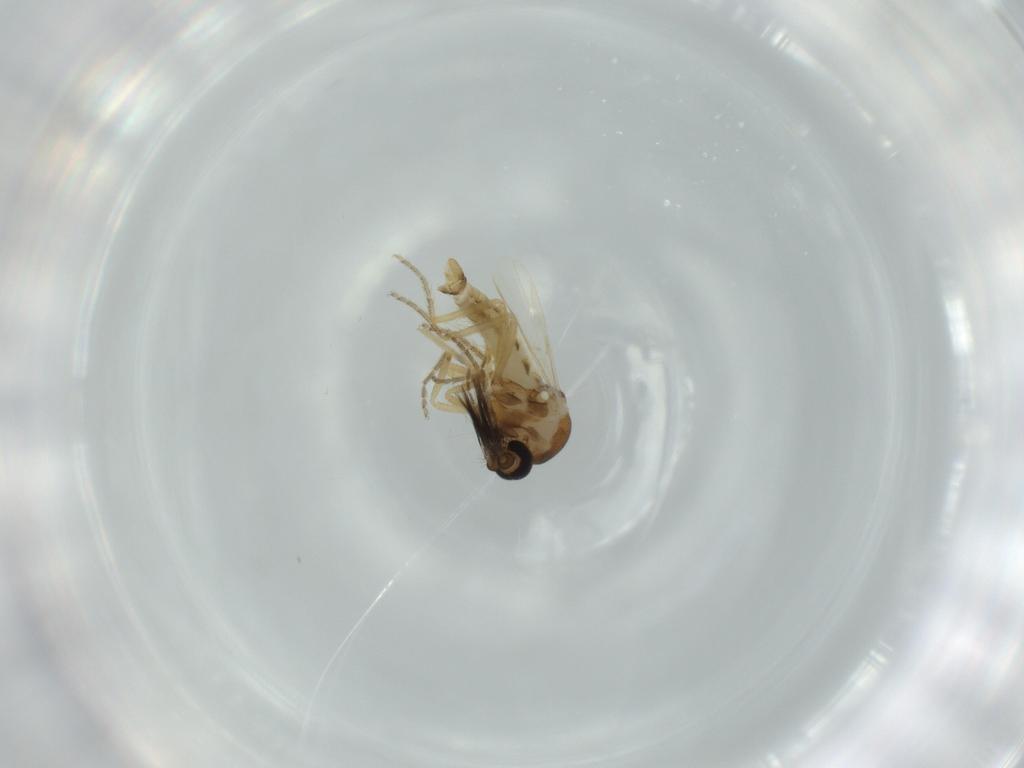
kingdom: Animalia
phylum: Arthropoda
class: Insecta
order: Diptera
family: Ceratopogonidae
